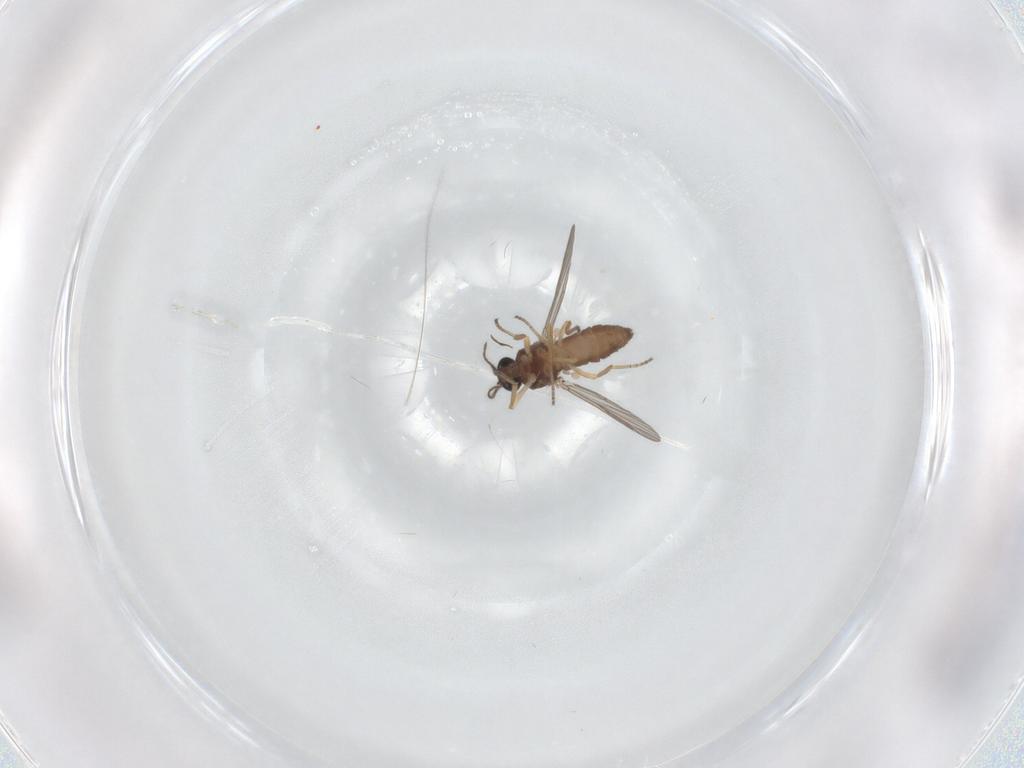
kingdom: Animalia
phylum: Arthropoda
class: Insecta
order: Diptera
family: Ceratopogonidae
